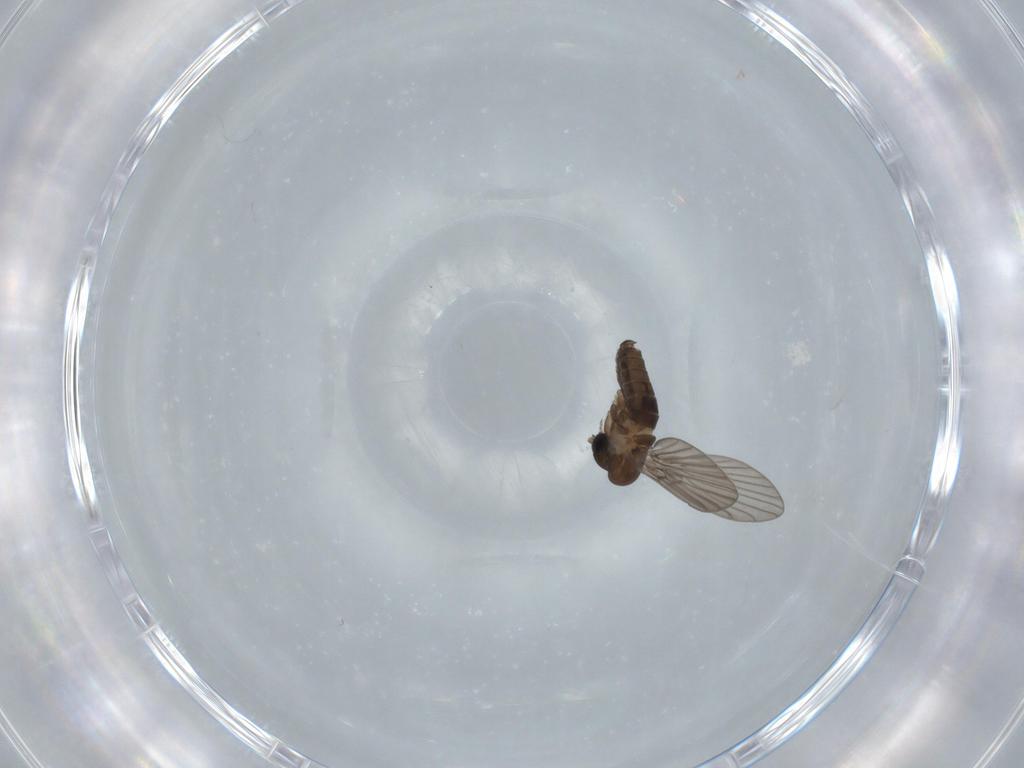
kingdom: Animalia
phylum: Arthropoda
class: Insecta
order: Diptera
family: Psychodidae
